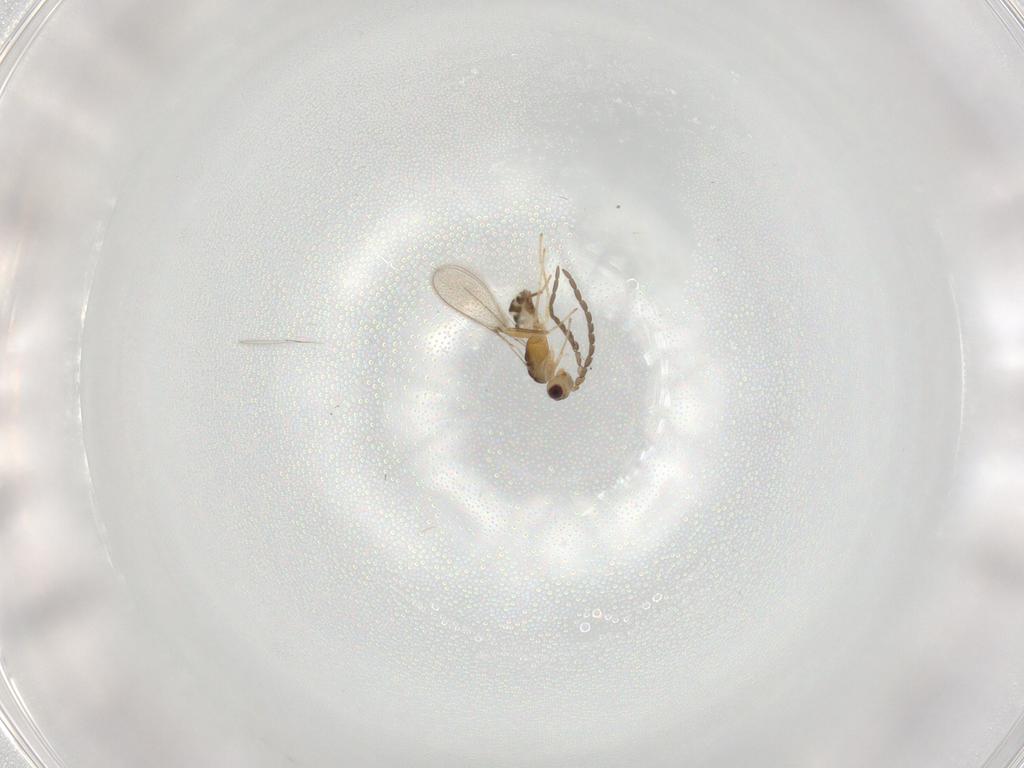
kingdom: Animalia
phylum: Arthropoda
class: Insecta
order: Hymenoptera
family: Mymaridae
